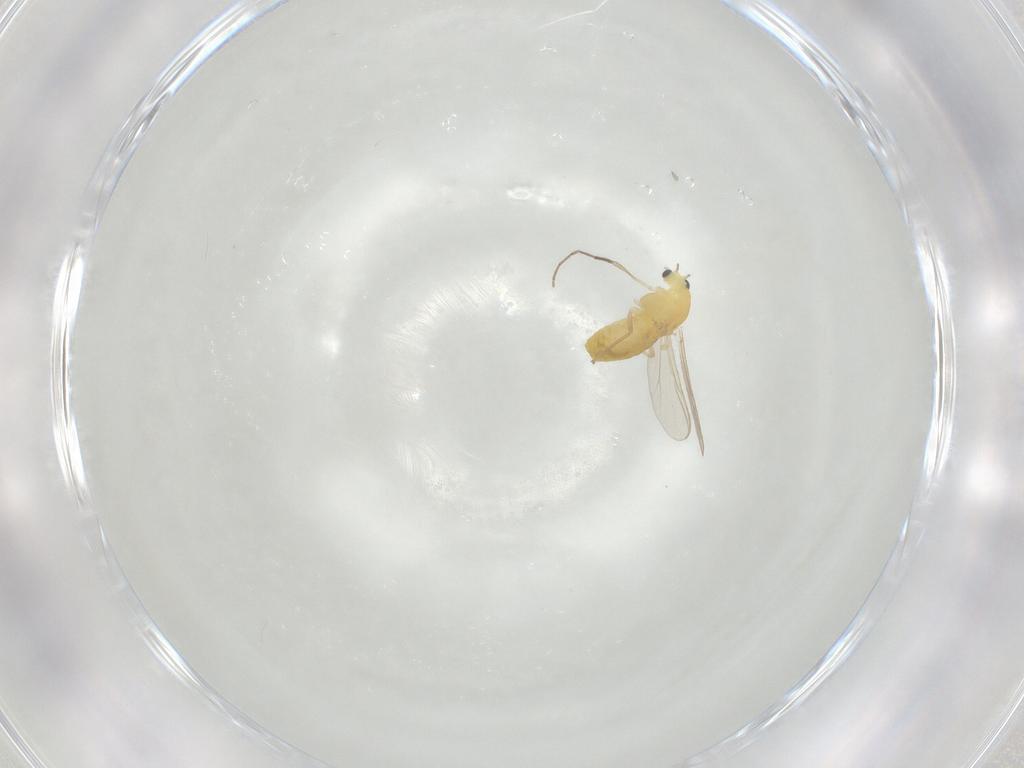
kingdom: Animalia
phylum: Arthropoda
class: Insecta
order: Diptera
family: Chironomidae
